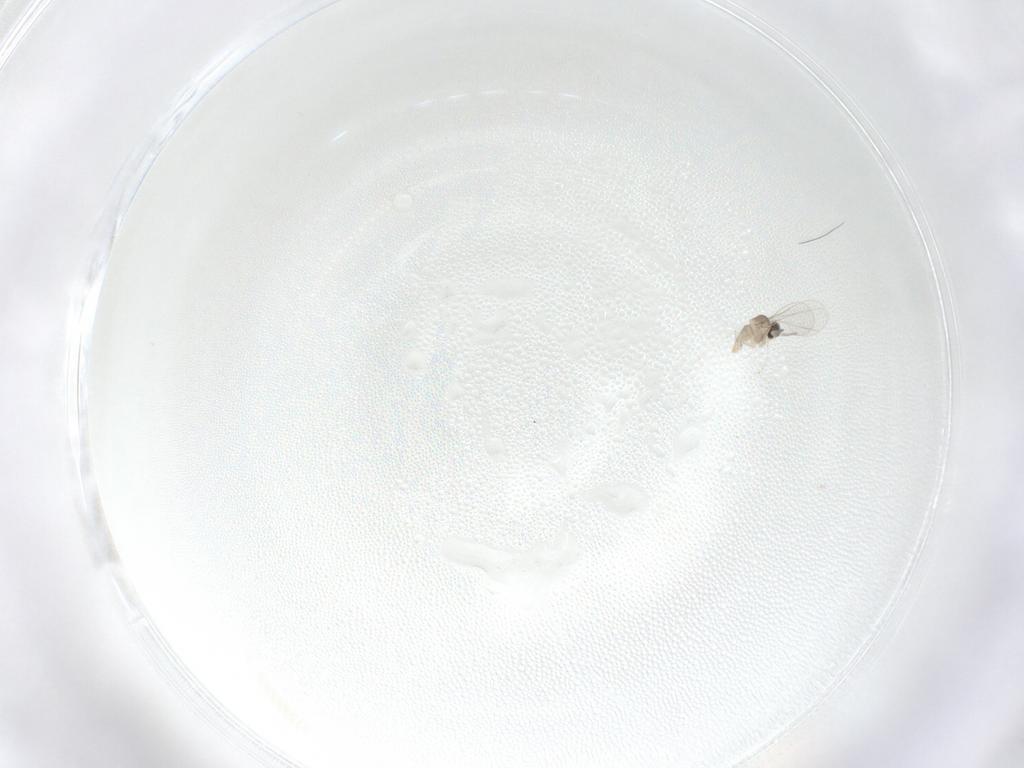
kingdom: Animalia
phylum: Arthropoda
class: Insecta
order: Diptera
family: Cecidomyiidae
